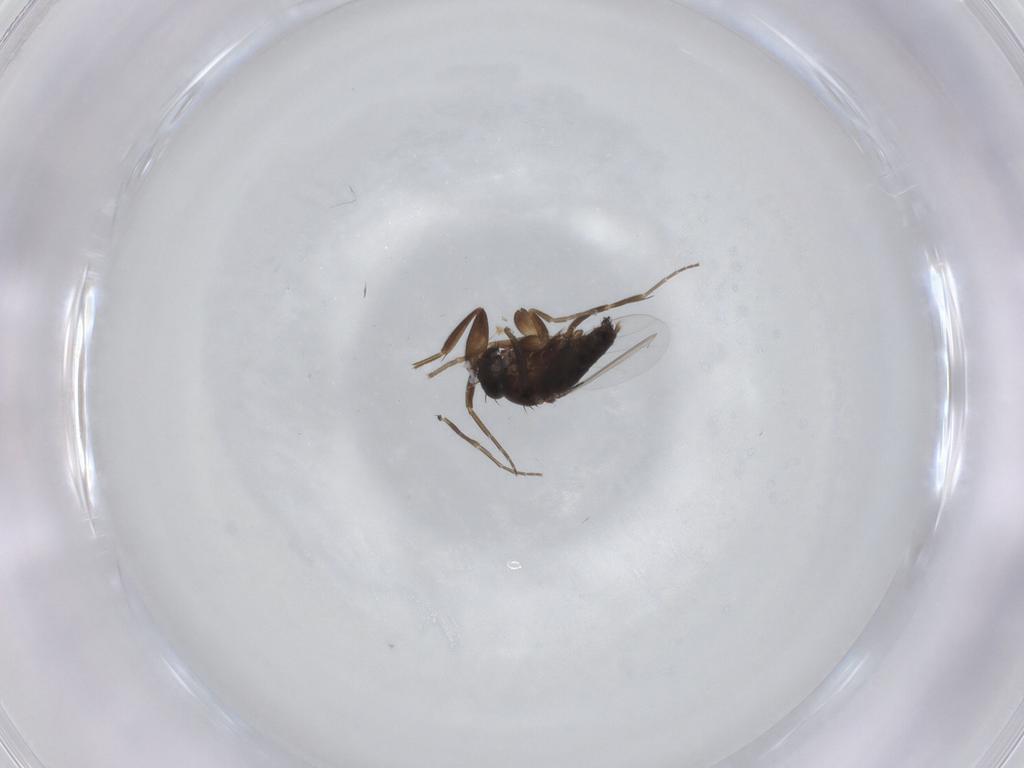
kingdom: Animalia
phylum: Arthropoda
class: Insecta
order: Diptera
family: Phoridae
